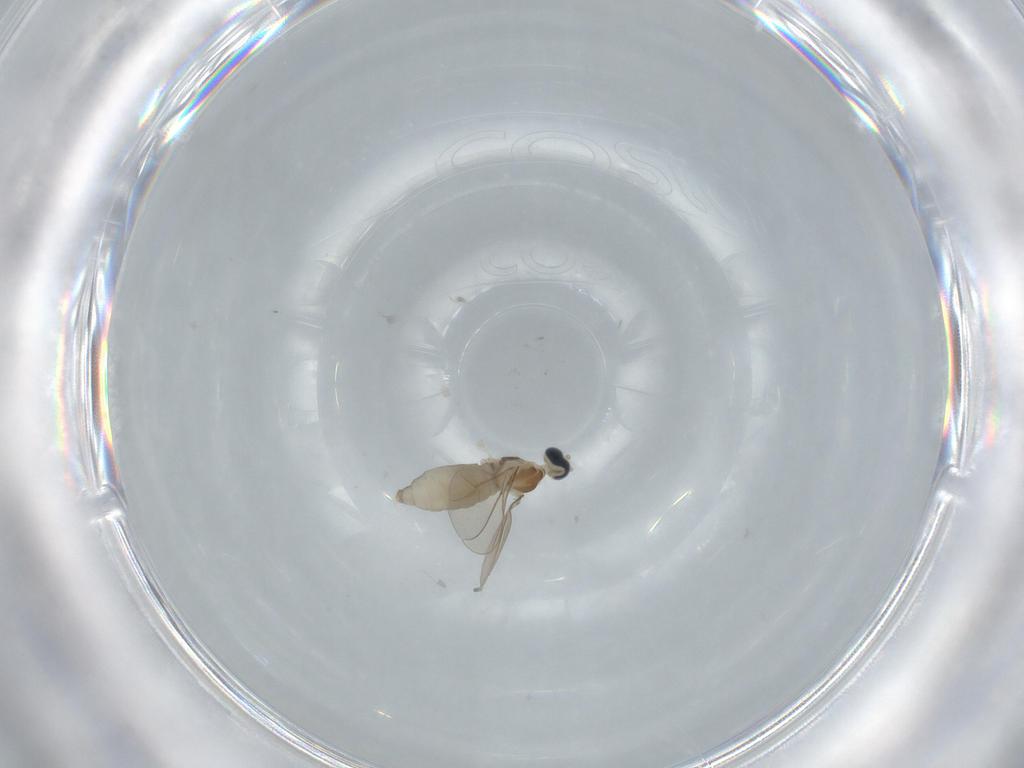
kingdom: Animalia
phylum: Arthropoda
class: Insecta
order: Diptera
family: Cecidomyiidae
